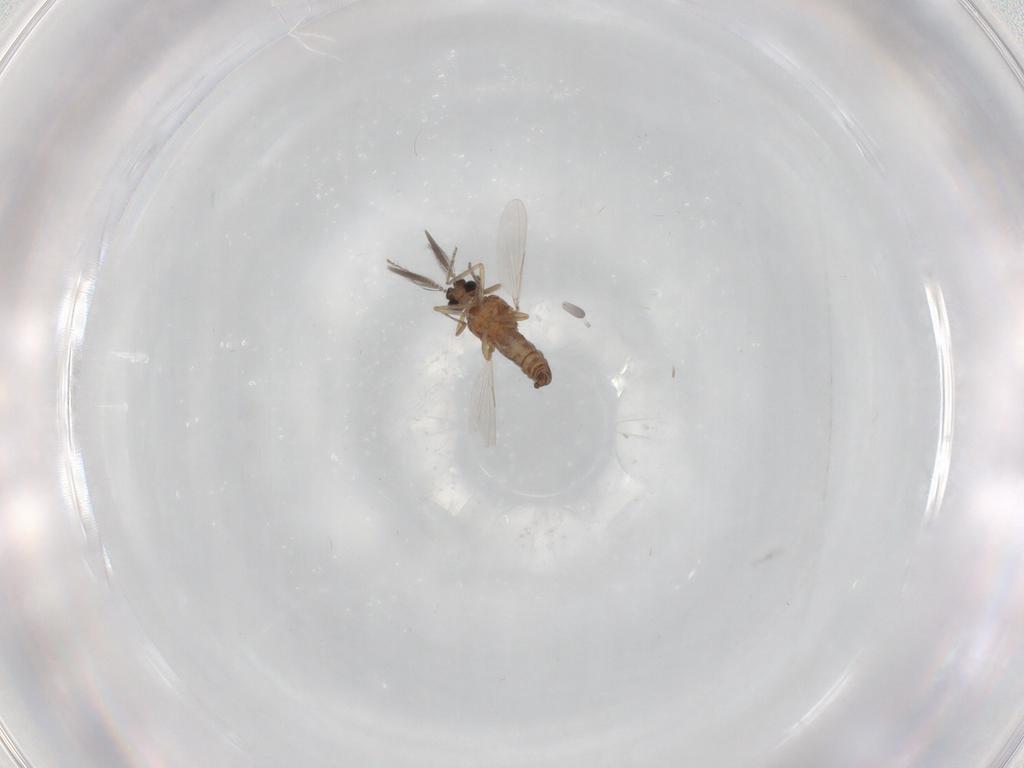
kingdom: Animalia
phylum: Arthropoda
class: Insecta
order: Diptera
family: Ceratopogonidae
